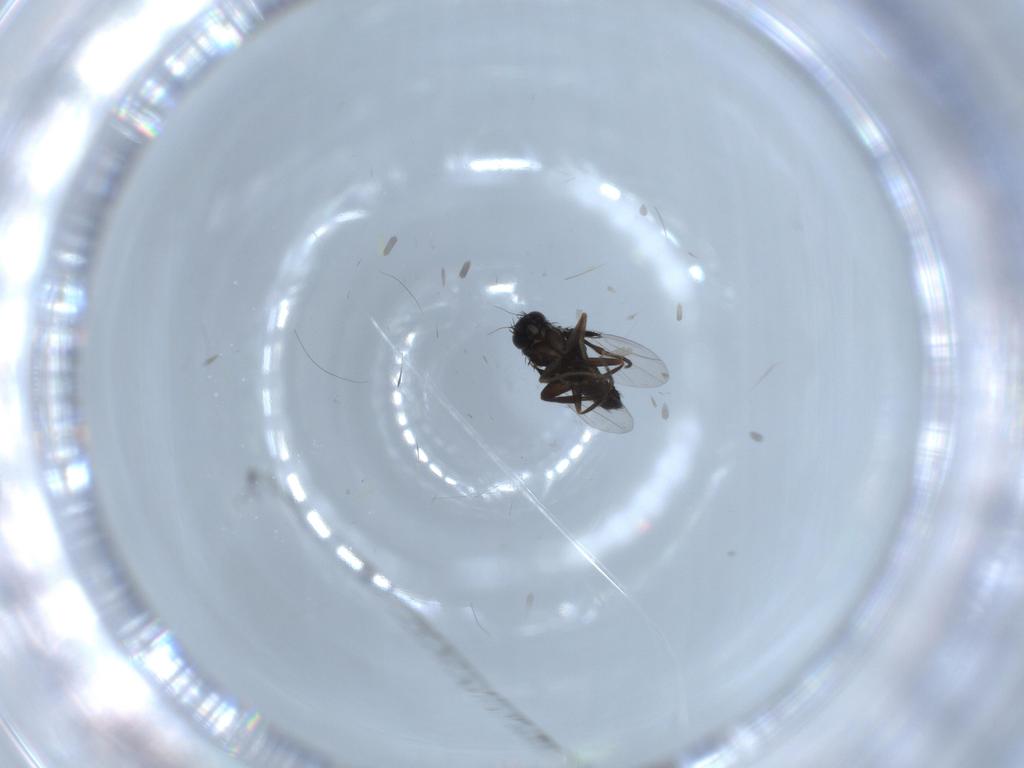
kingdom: Animalia
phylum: Arthropoda
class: Insecta
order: Diptera
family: Phoridae
